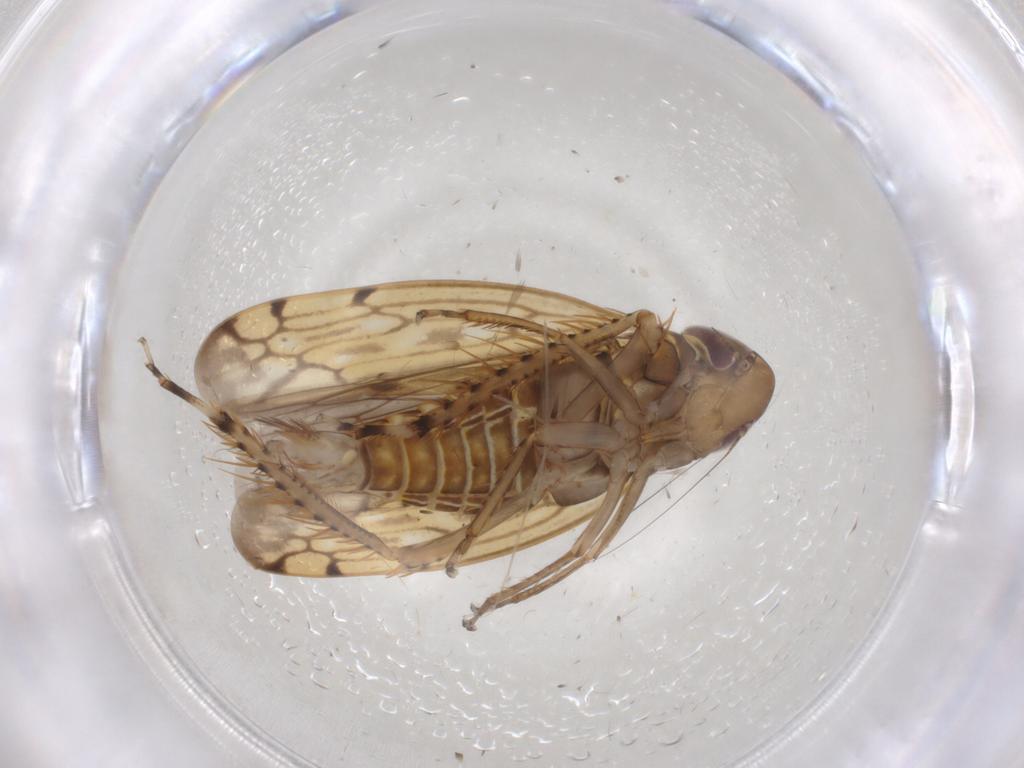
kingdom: Animalia
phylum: Arthropoda
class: Insecta
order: Hemiptera
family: Cicadellidae
